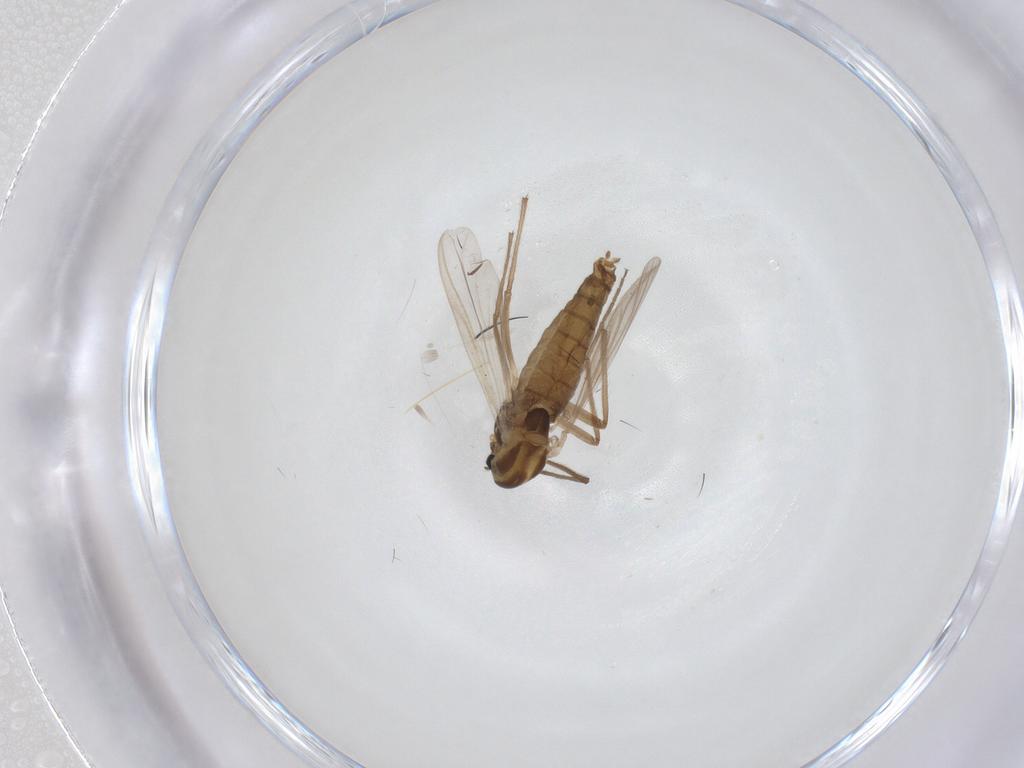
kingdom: Animalia
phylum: Arthropoda
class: Insecta
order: Diptera
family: Chironomidae
